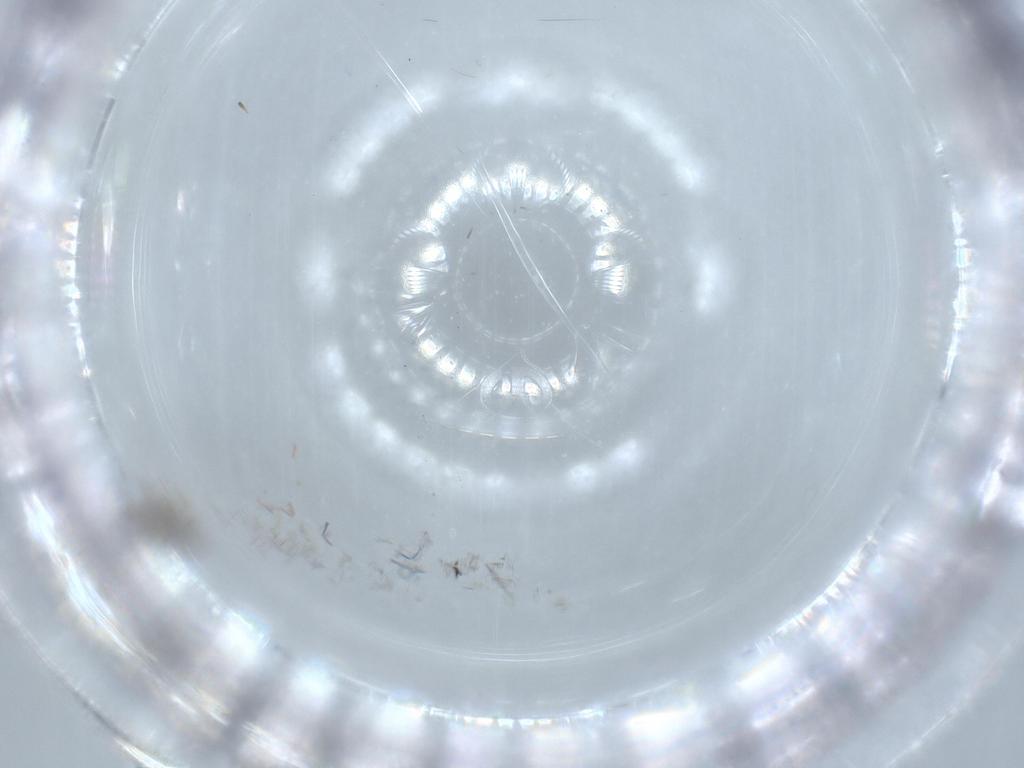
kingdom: Animalia
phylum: Arthropoda
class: Insecta
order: Diptera
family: Cecidomyiidae
